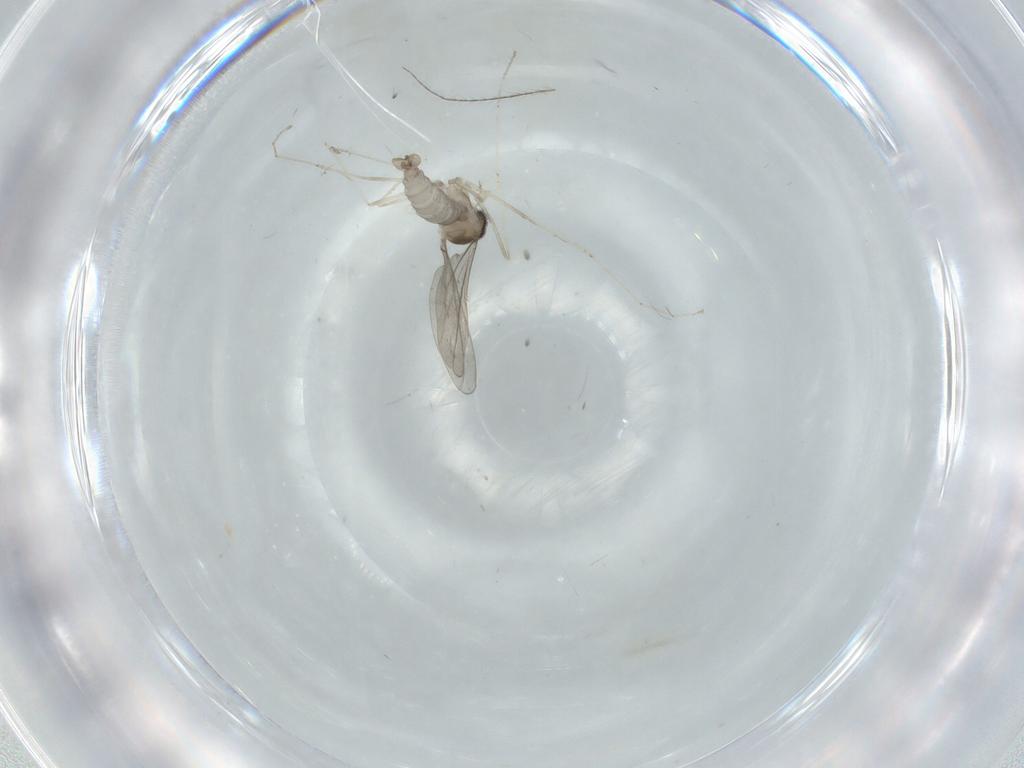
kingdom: Animalia
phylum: Arthropoda
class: Insecta
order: Diptera
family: Cecidomyiidae
